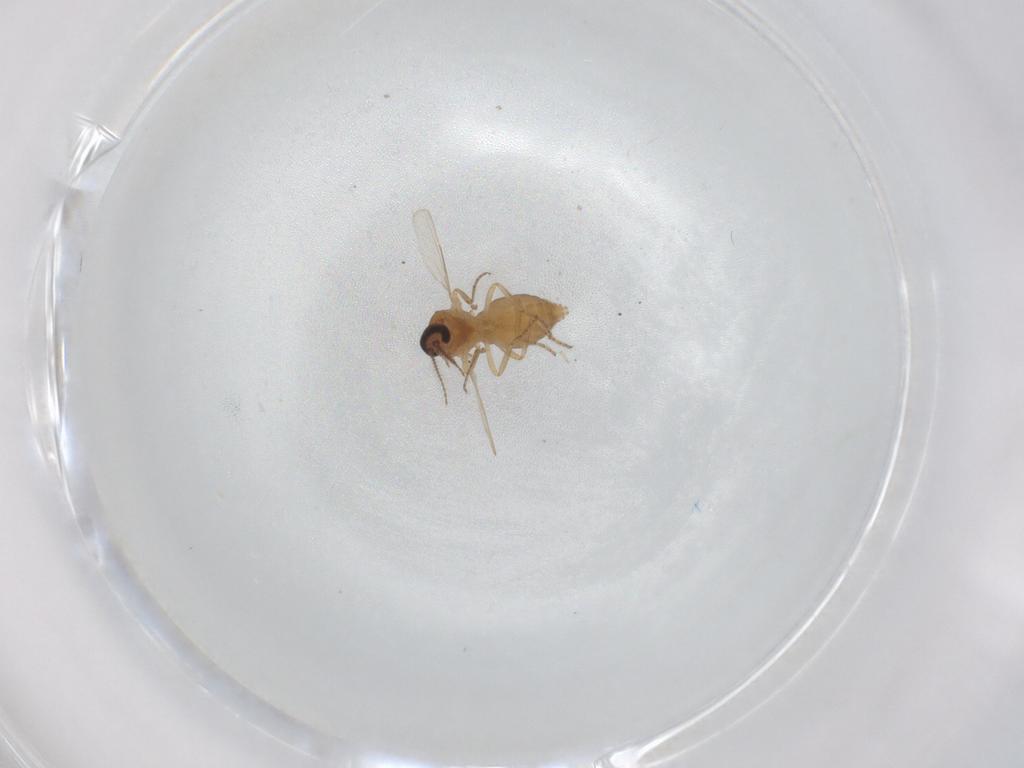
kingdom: Animalia
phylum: Arthropoda
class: Insecta
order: Diptera
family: Ceratopogonidae
